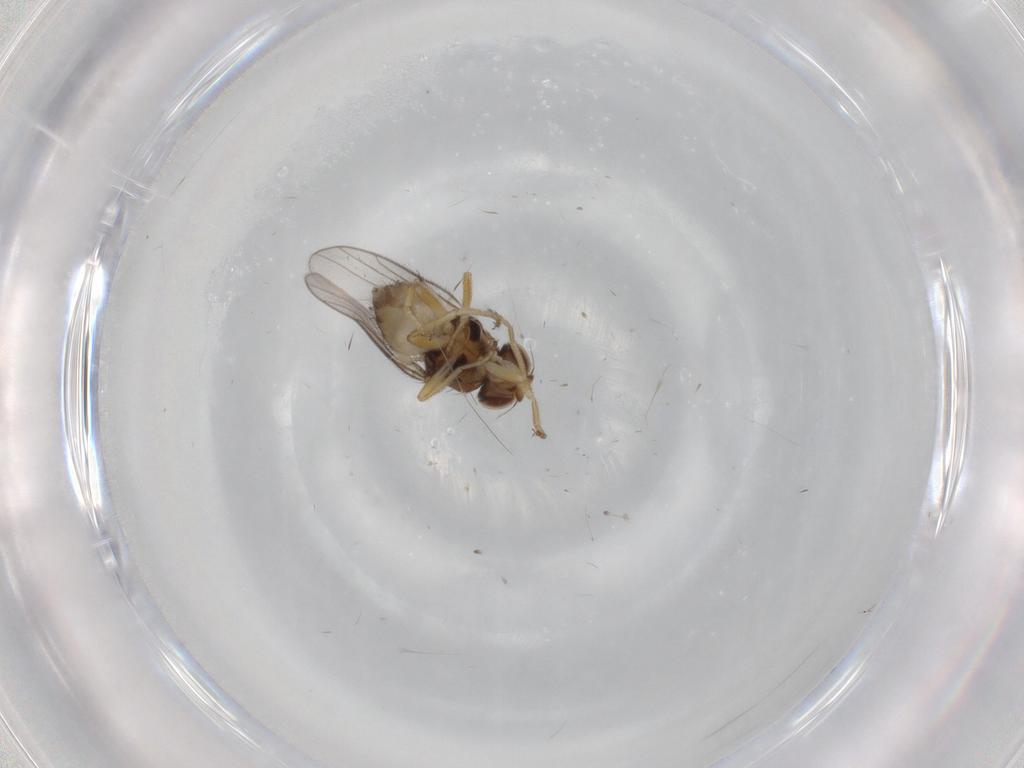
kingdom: Animalia
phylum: Arthropoda
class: Insecta
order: Diptera
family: Chloropidae
